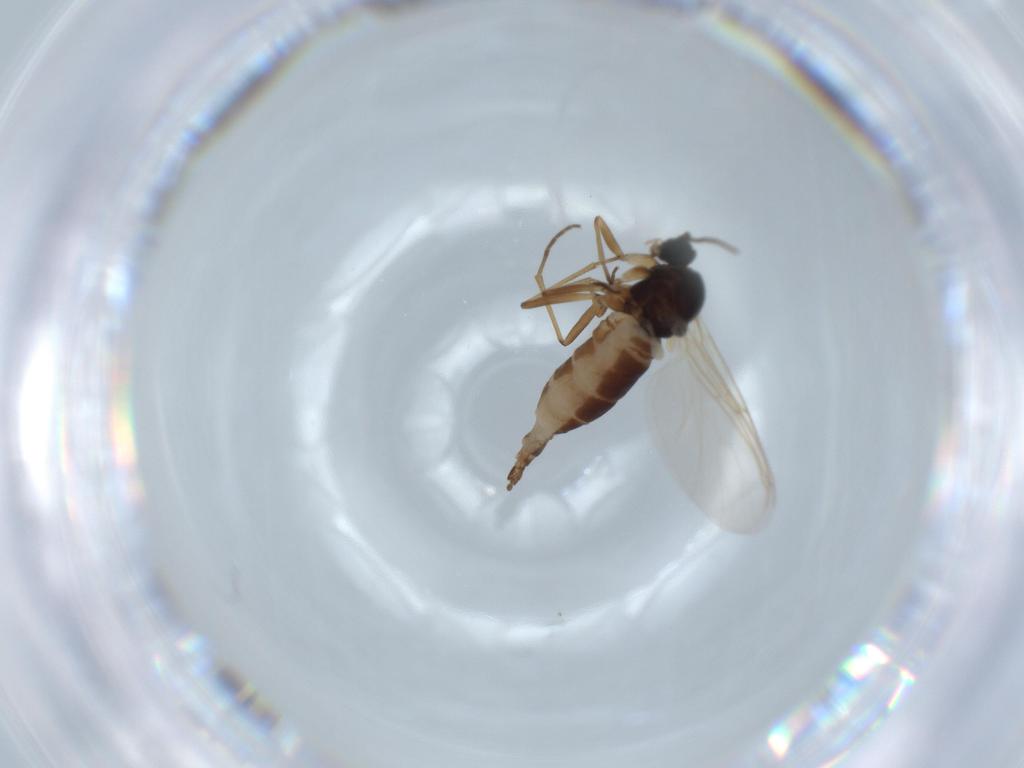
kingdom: Animalia
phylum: Arthropoda
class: Insecta
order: Diptera
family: Sciaridae
